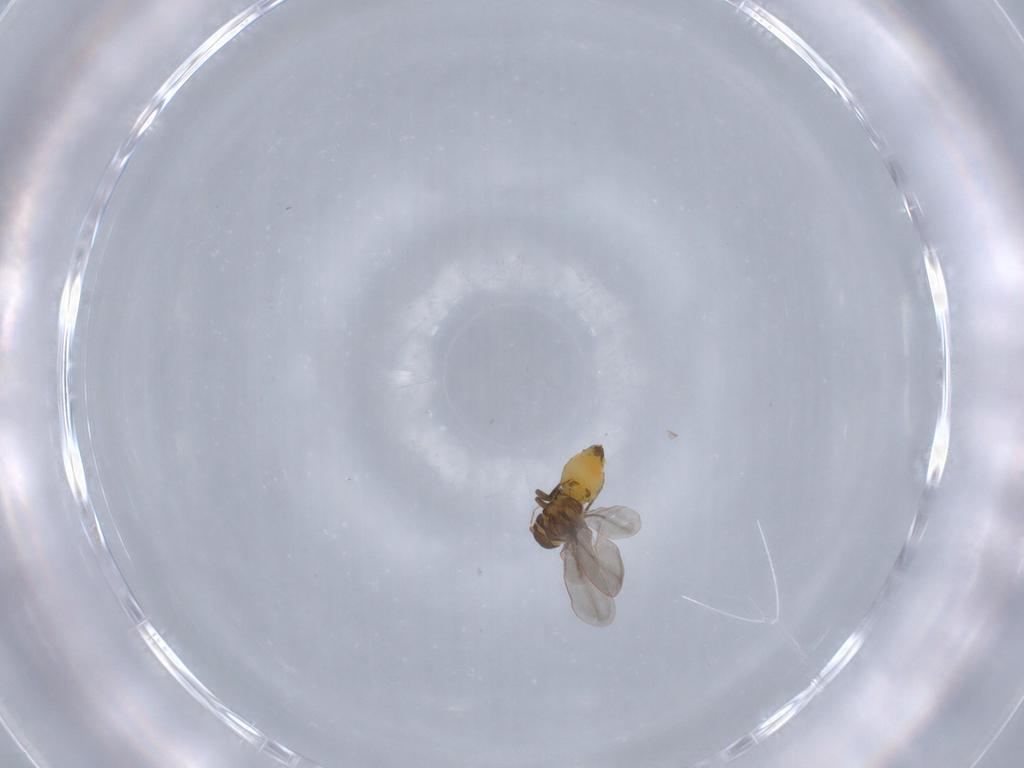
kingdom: Animalia
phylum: Arthropoda
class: Insecta
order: Hemiptera
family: Aleyrodidae
